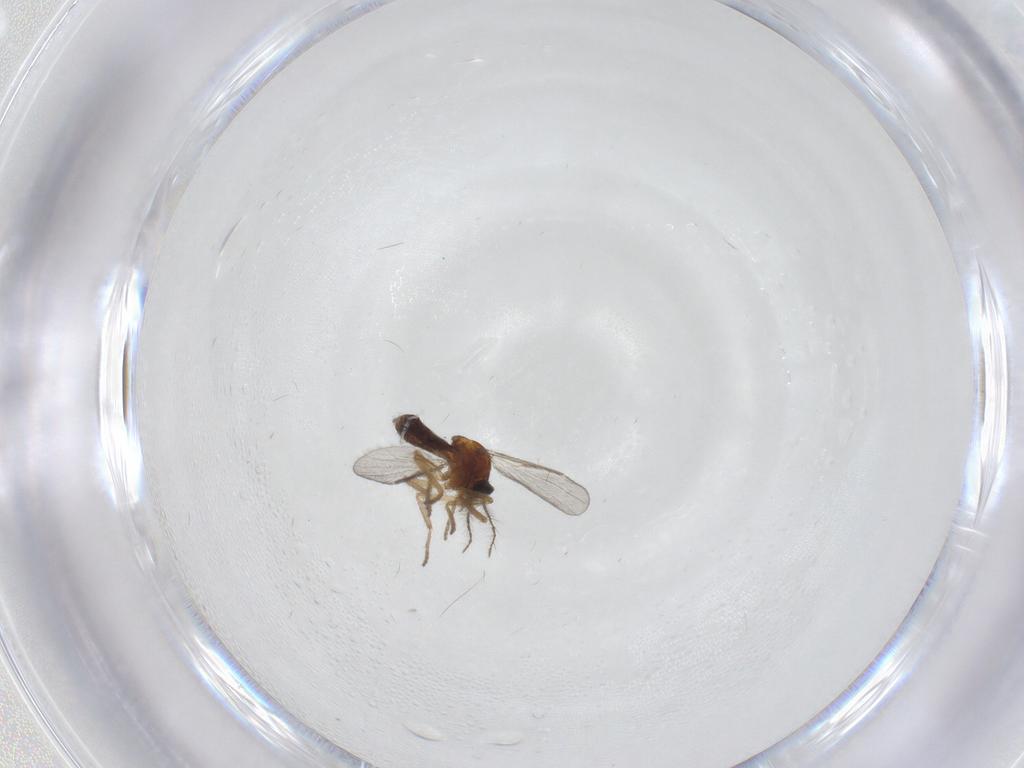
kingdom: Animalia
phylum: Arthropoda
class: Insecta
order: Diptera
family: Ceratopogonidae
